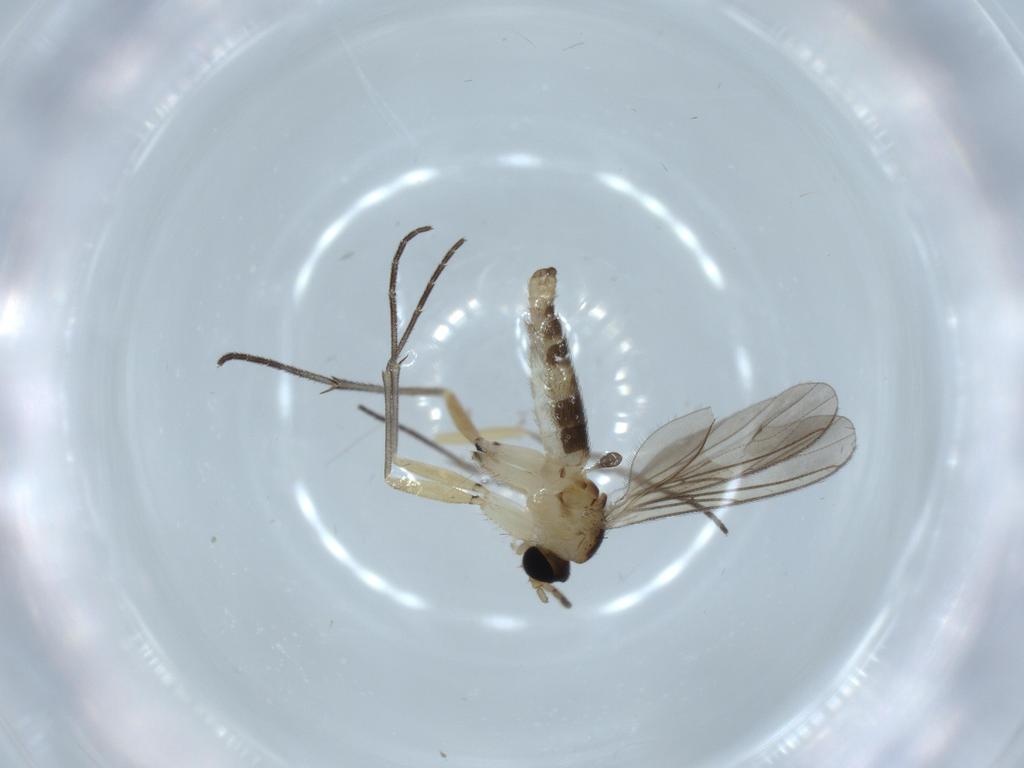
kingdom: Animalia
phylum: Arthropoda
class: Insecta
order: Diptera
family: Sciaridae
